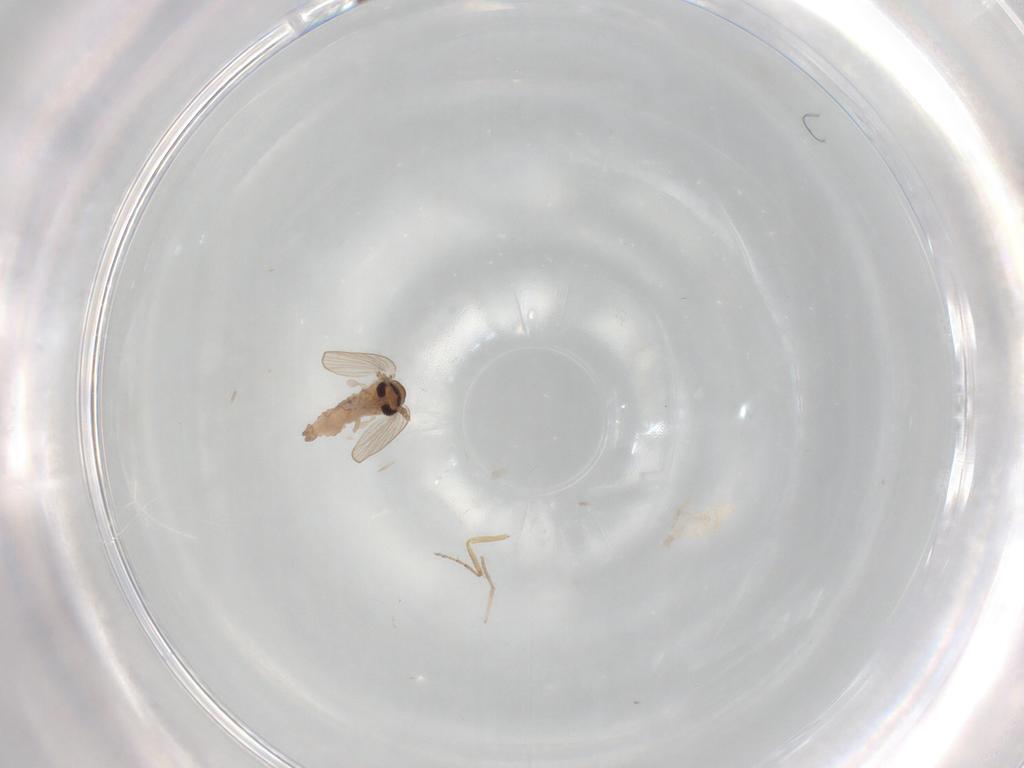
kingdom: Animalia
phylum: Arthropoda
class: Insecta
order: Diptera
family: Psychodidae
